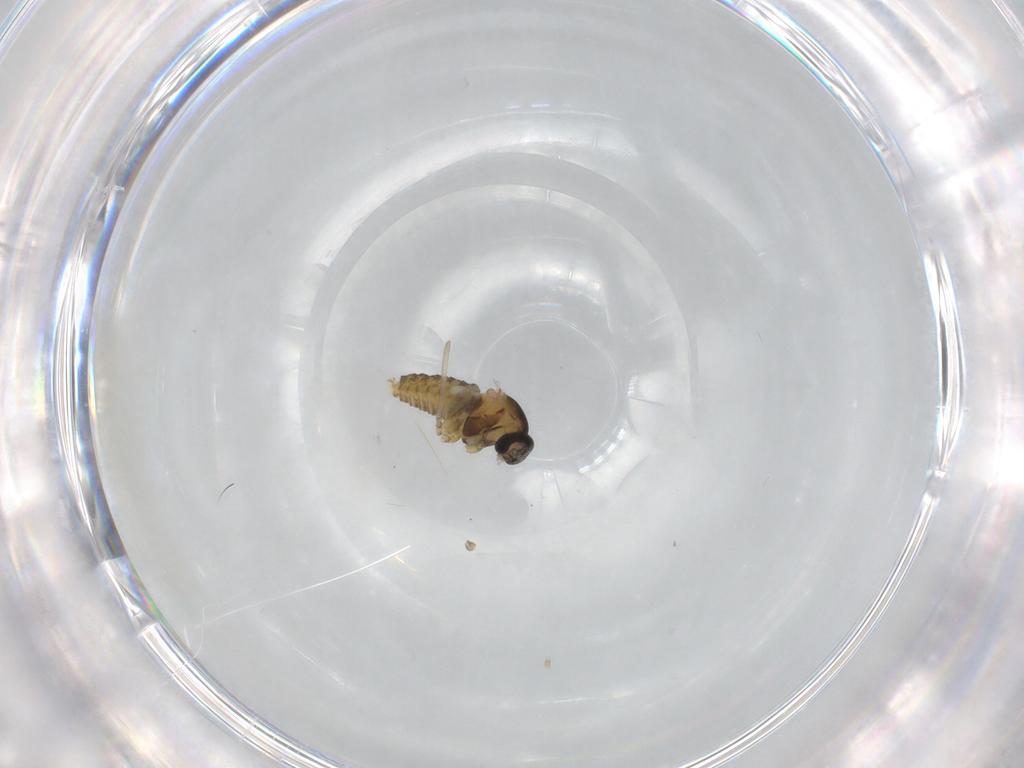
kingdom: Animalia
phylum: Arthropoda
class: Insecta
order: Diptera
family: Cecidomyiidae
